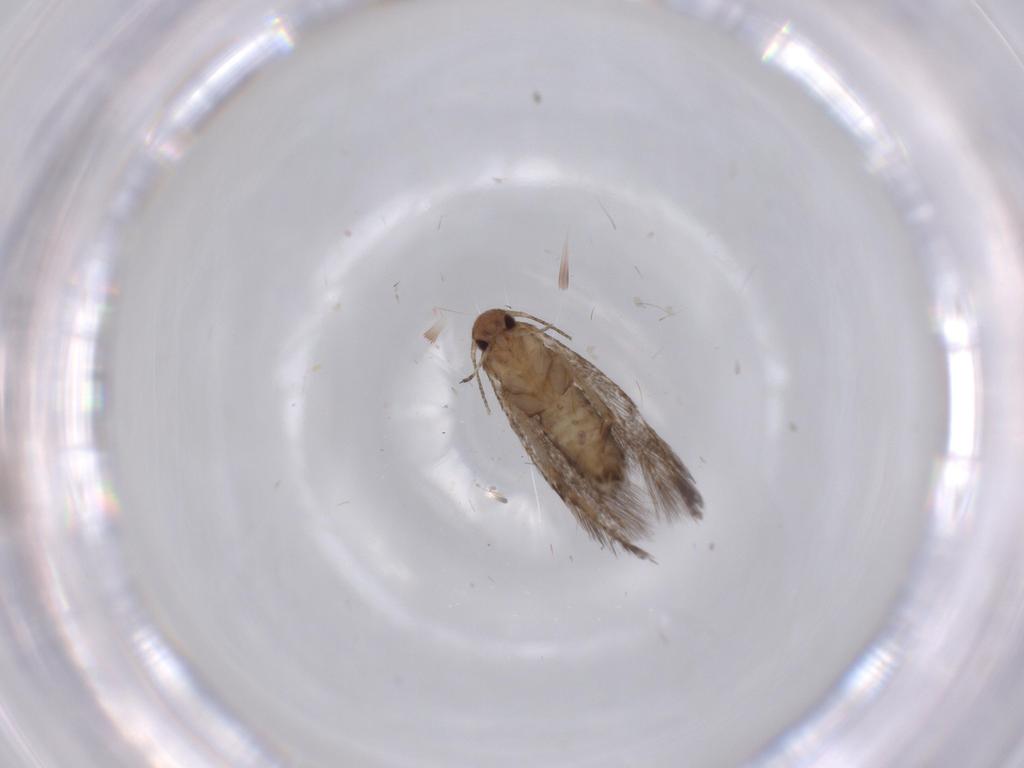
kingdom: Animalia
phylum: Arthropoda
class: Insecta
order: Lepidoptera
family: Gelechiidae
